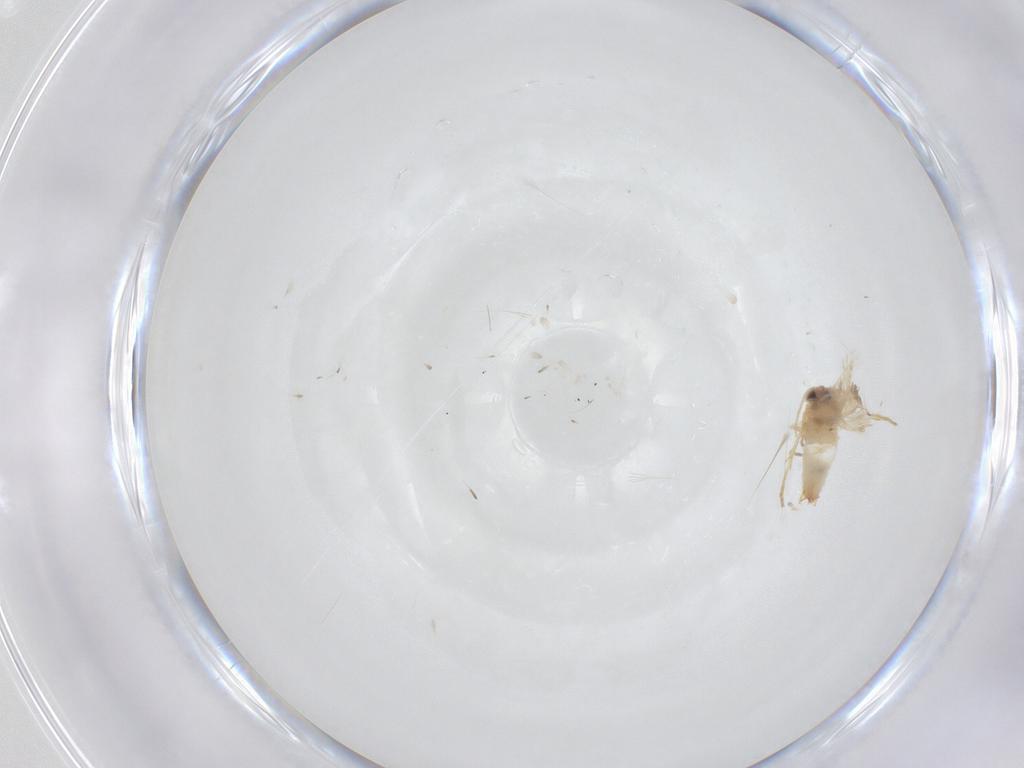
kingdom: Animalia
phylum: Arthropoda
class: Insecta
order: Lepidoptera
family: Crambidae
